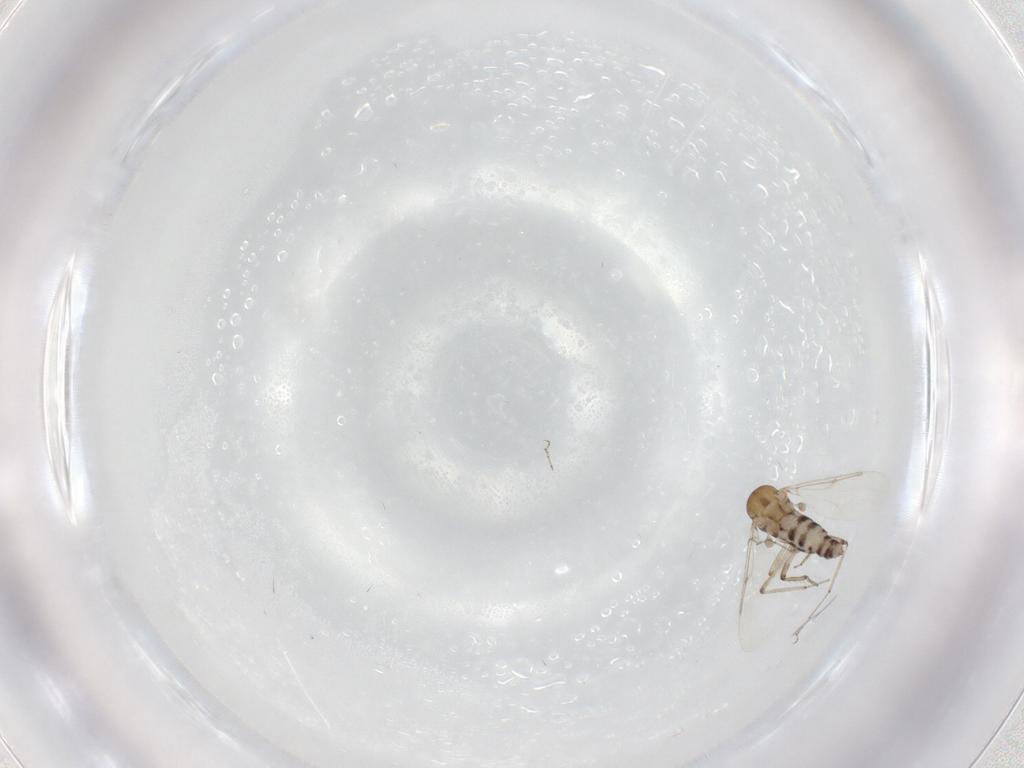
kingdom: Animalia
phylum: Arthropoda
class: Insecta
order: Diptera
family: Ceratopogonidae
